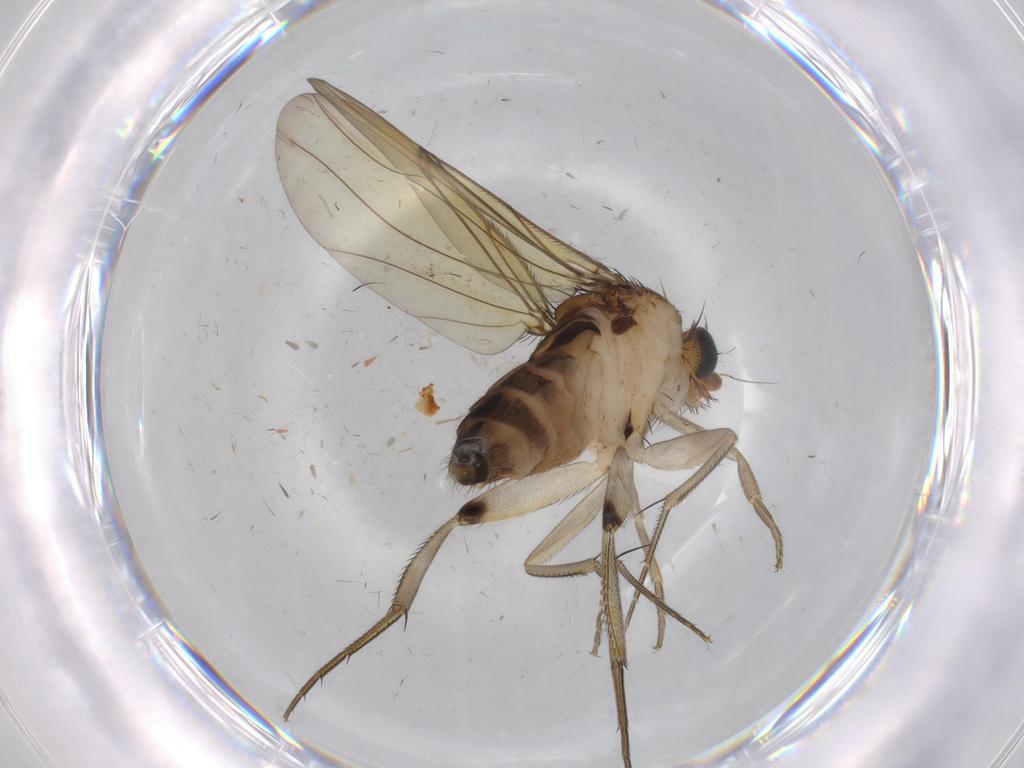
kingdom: Animalia
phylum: Arthropoda
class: Insecta
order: Diptera
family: Phoridae
